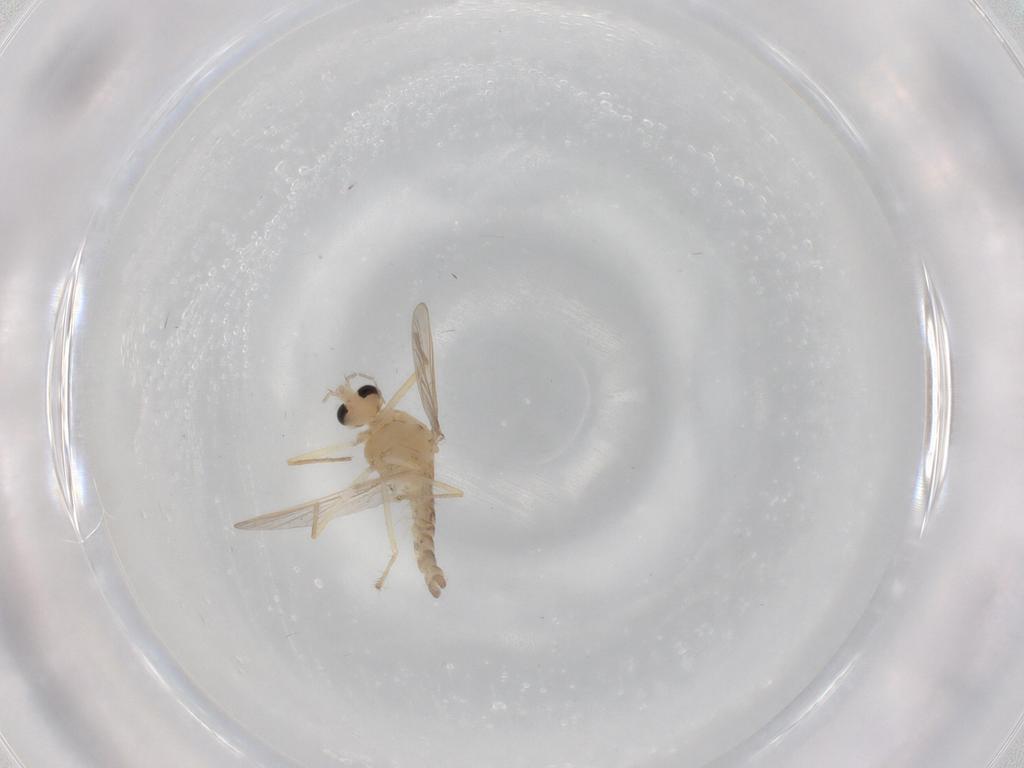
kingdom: Animalia
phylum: Arthropoda
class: Insecta
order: Diptera
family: Chironomidae
